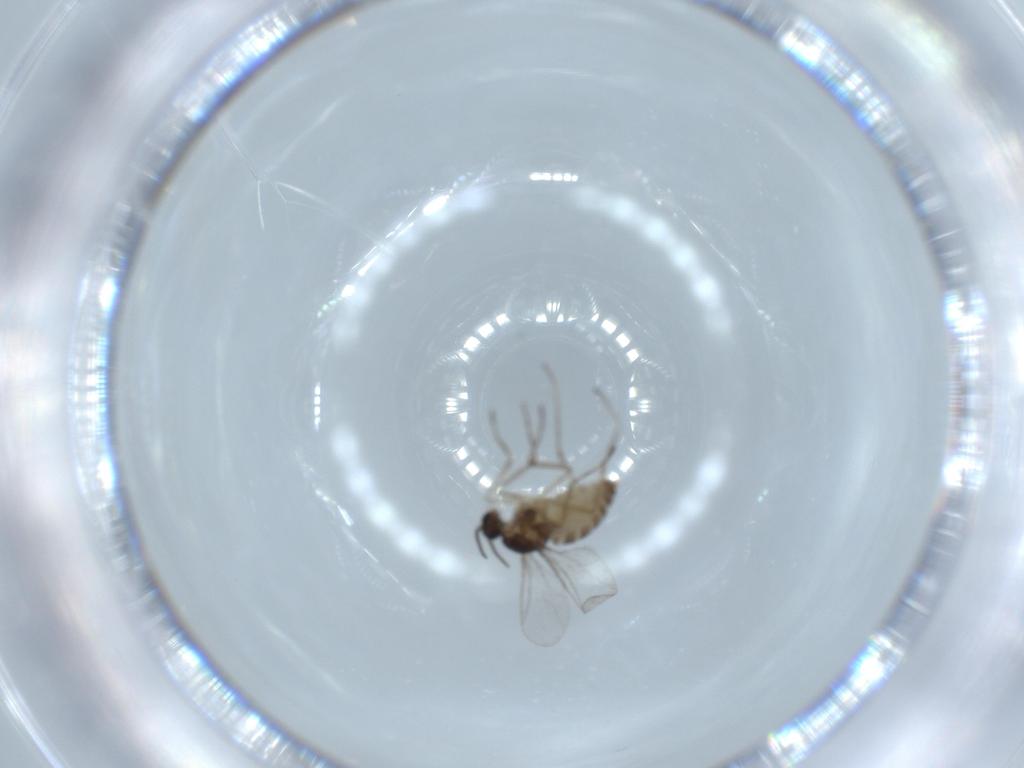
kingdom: Animalia
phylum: Arthropoda
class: Insecta
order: Diptera
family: Cecidomyiidae
